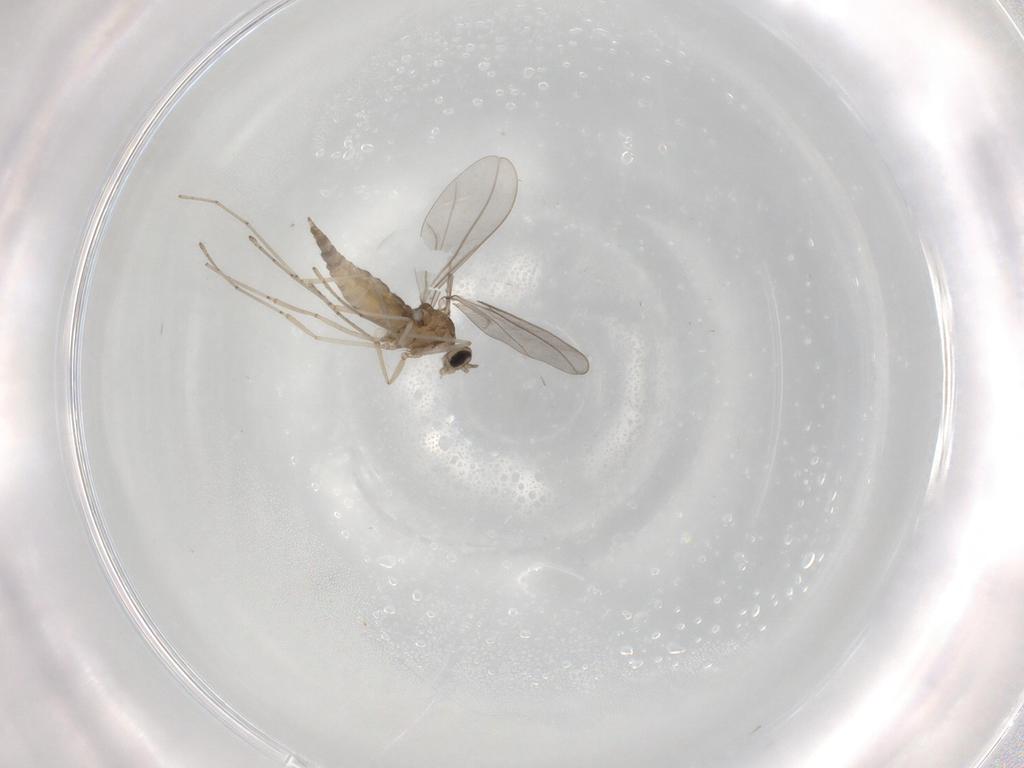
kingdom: Animalia
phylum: Arthropoda
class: Insecta
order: Diptera
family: Cecidomyiidae
